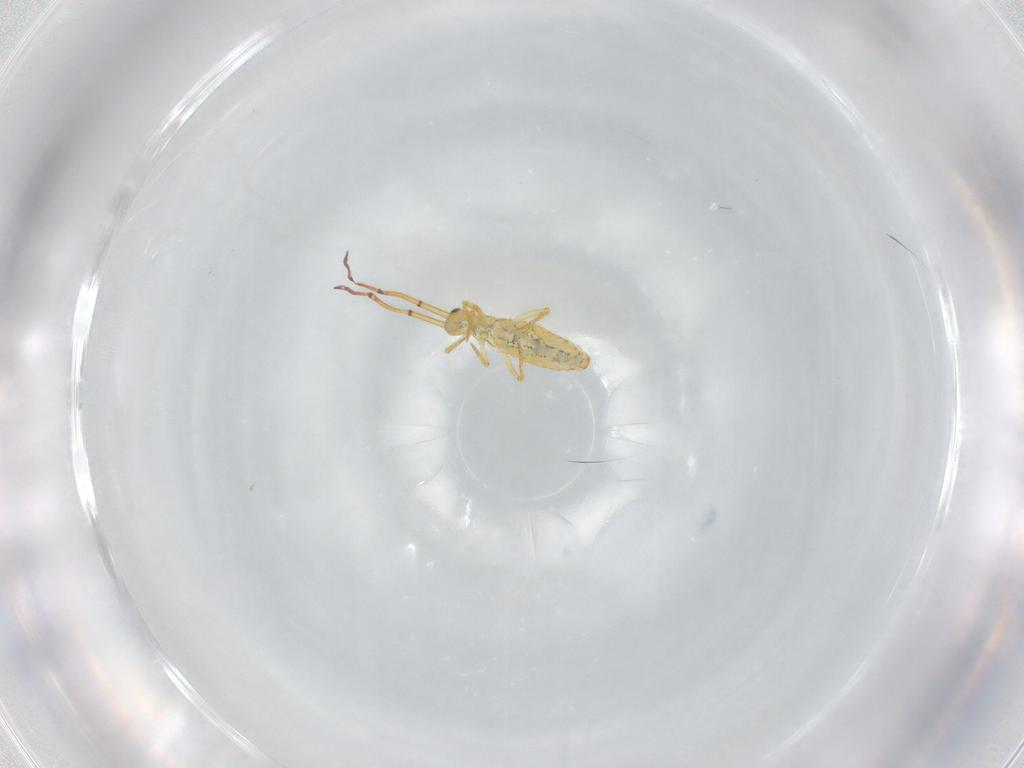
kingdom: Animalia
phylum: Arthropoda
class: Collembola
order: Entomobryomorpha
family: Entomobryidae
